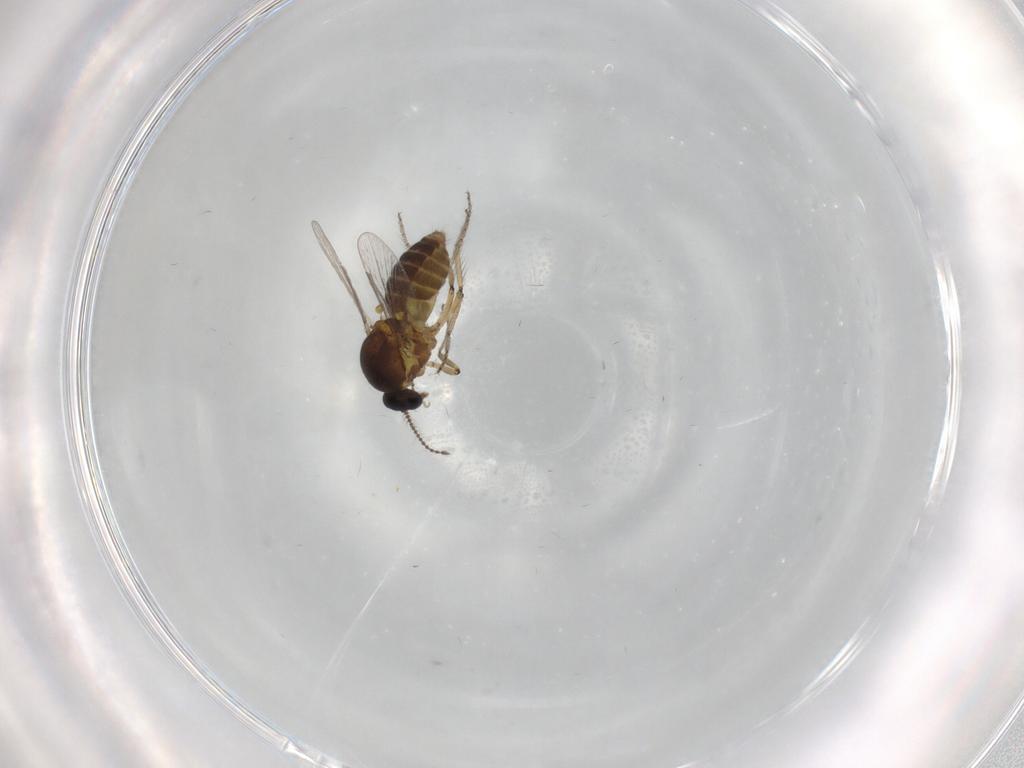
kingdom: Animalia
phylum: Arthropoda
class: Insecta
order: Diptera
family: Ceratopogonidae
